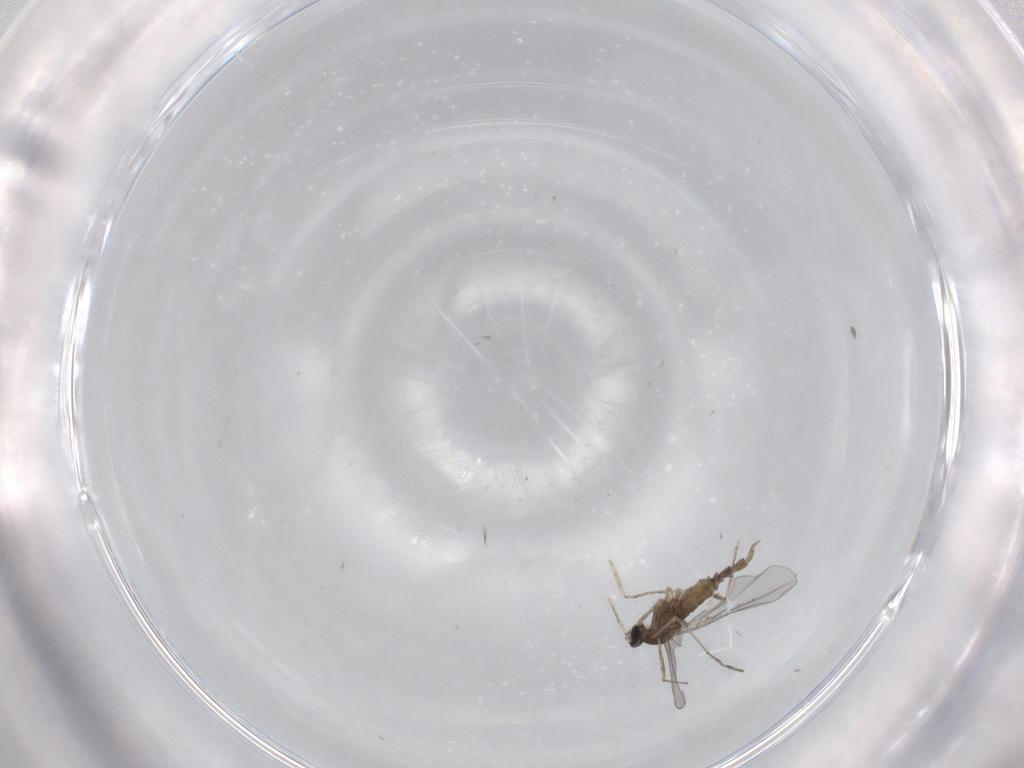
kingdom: Animalia
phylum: Arthropoda
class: Insecta
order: Diptera
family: Cecidomyiidae
